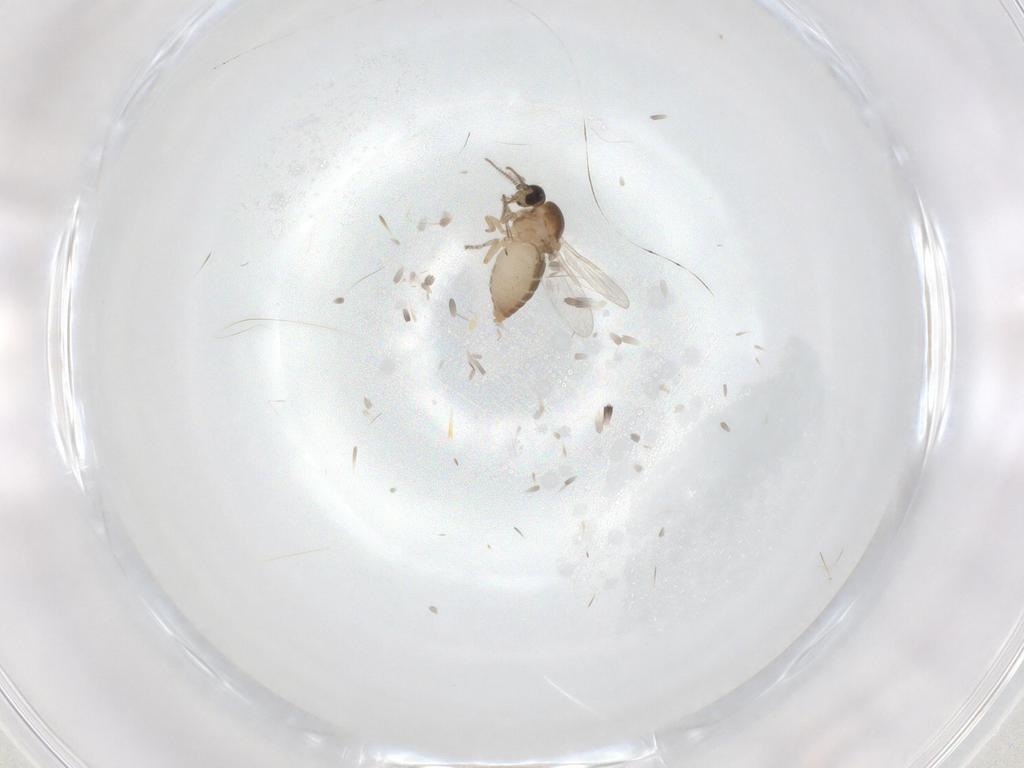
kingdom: Animalia
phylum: Arthropoda
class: Insecta
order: Diptera
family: Ceratopogonidae
